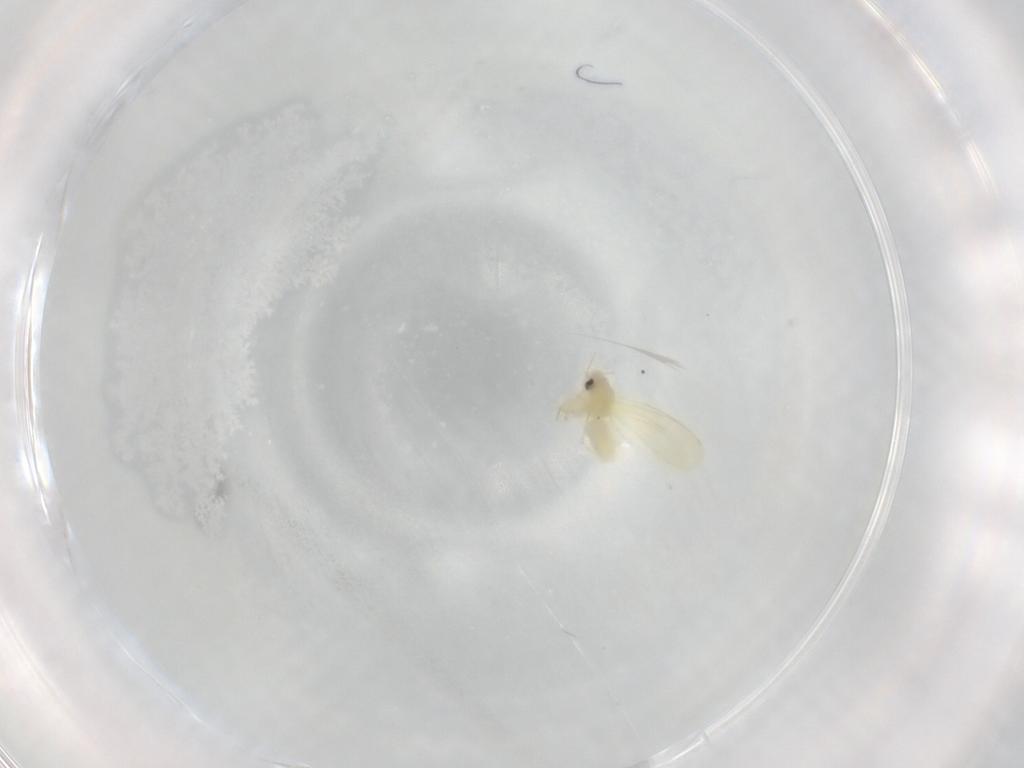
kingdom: Animalia
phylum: Arthropoda
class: Insecta
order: Hemiptera
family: Aleyrodidae
